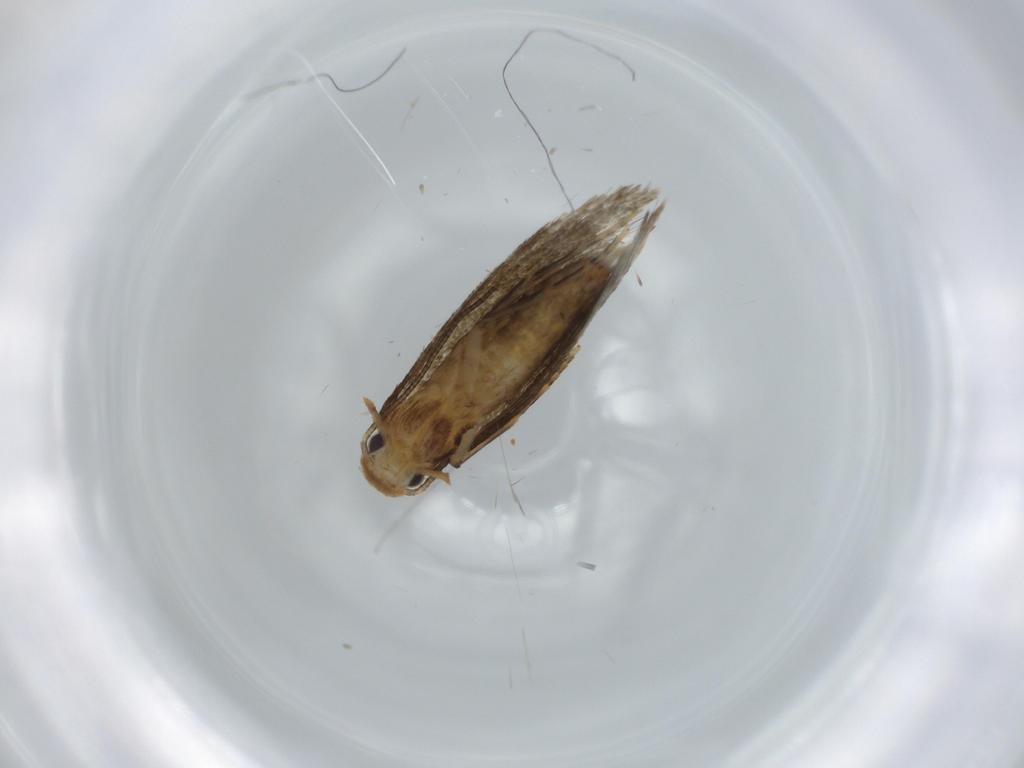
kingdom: Animalia
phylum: Arthropoda
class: Insecta
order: Lepidoptera
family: Tineidae
